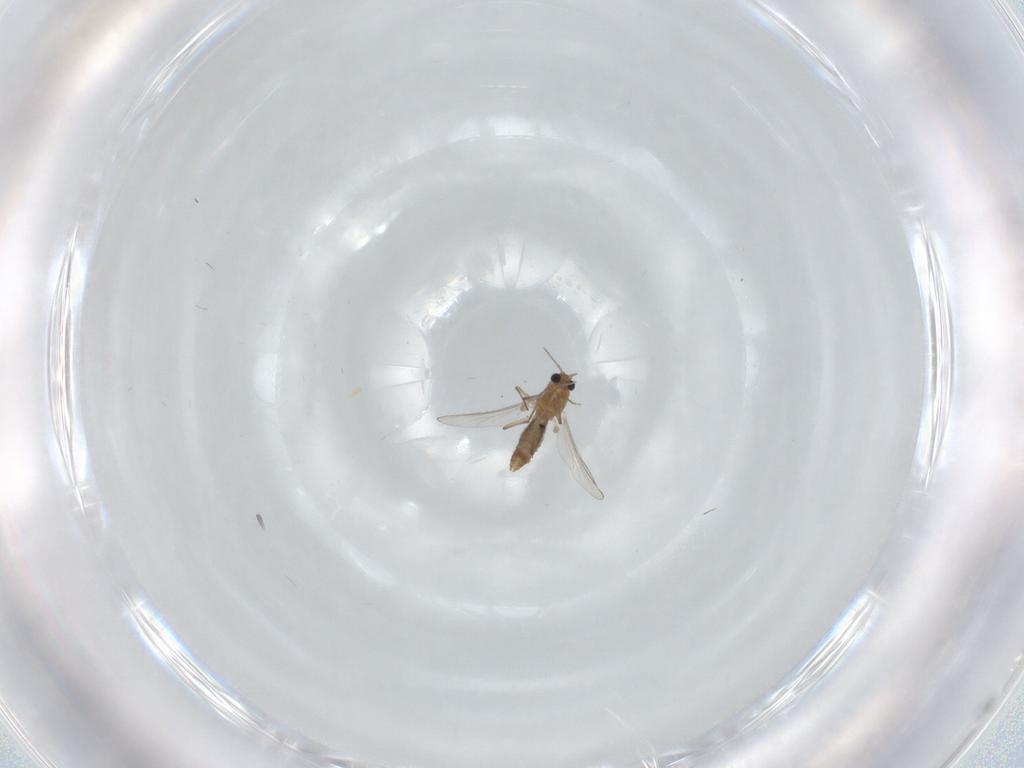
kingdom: Animalia
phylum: Arthropoda
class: Insecta
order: Diptera
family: Chironomidae
